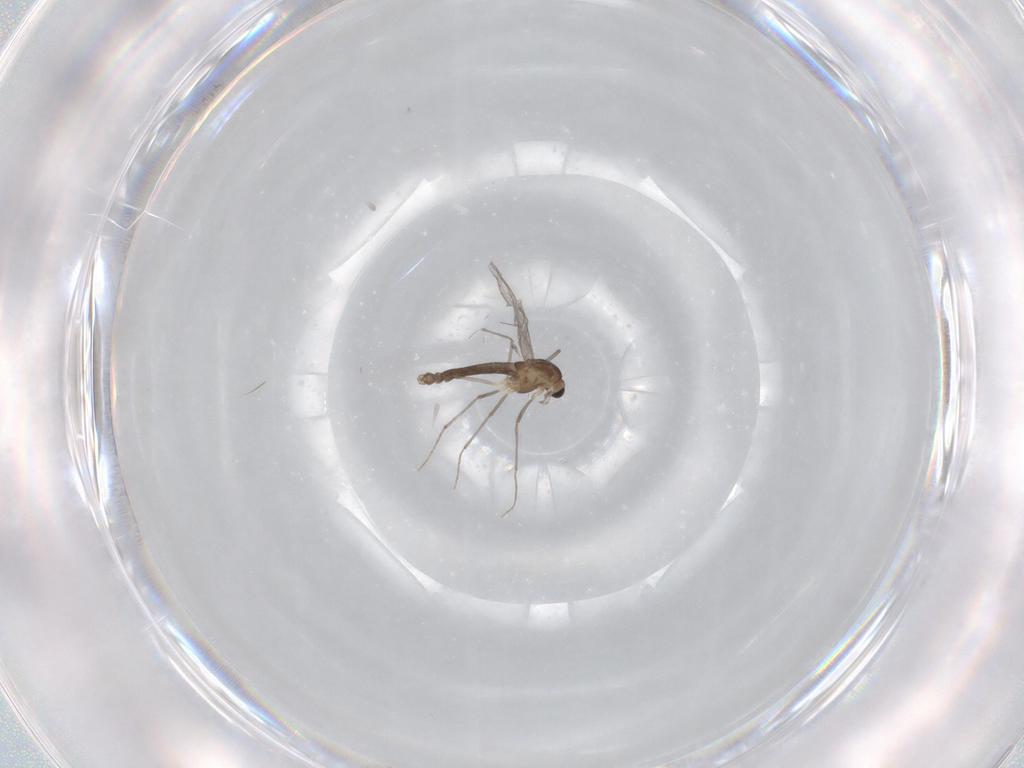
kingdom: Animalia
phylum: Arthropoda
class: Insecta
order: Diptera
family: Chironomidae
